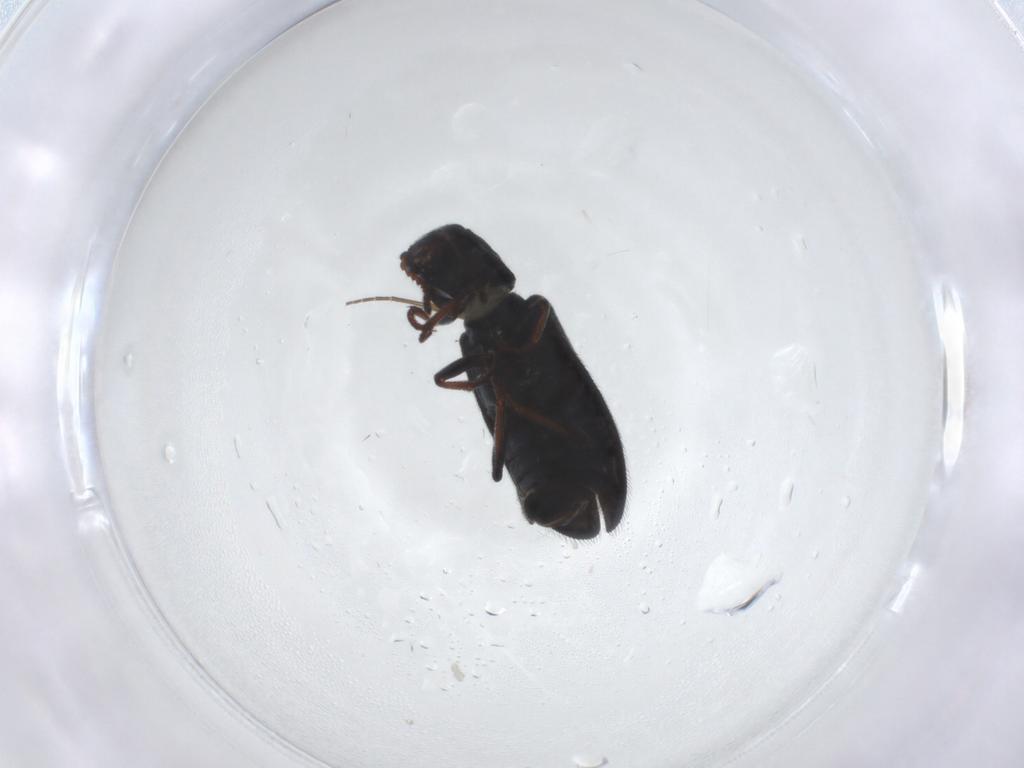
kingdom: Animalia
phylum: Arthropoda
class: Insecta
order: Coleoptera
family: Melyridae
